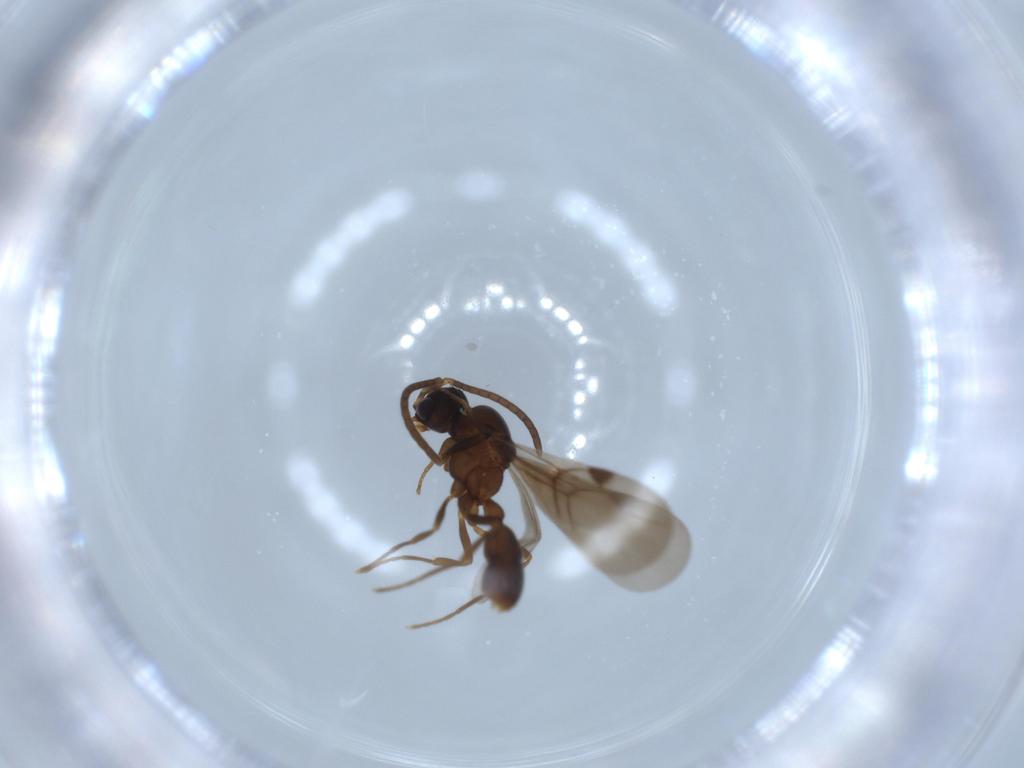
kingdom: Animalia
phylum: Arthropoda
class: Insecta
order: Hymenoptera
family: Formicidae
